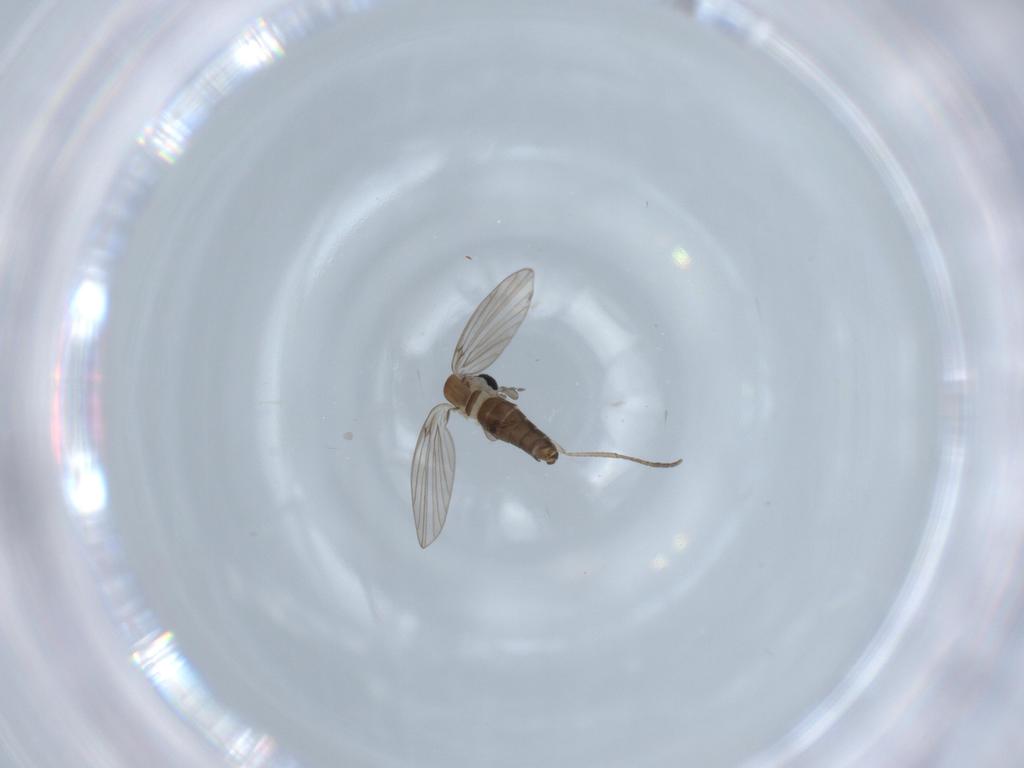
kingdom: Animalia
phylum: Arthropoda
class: Insecta
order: Diptera
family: Psychodidae
